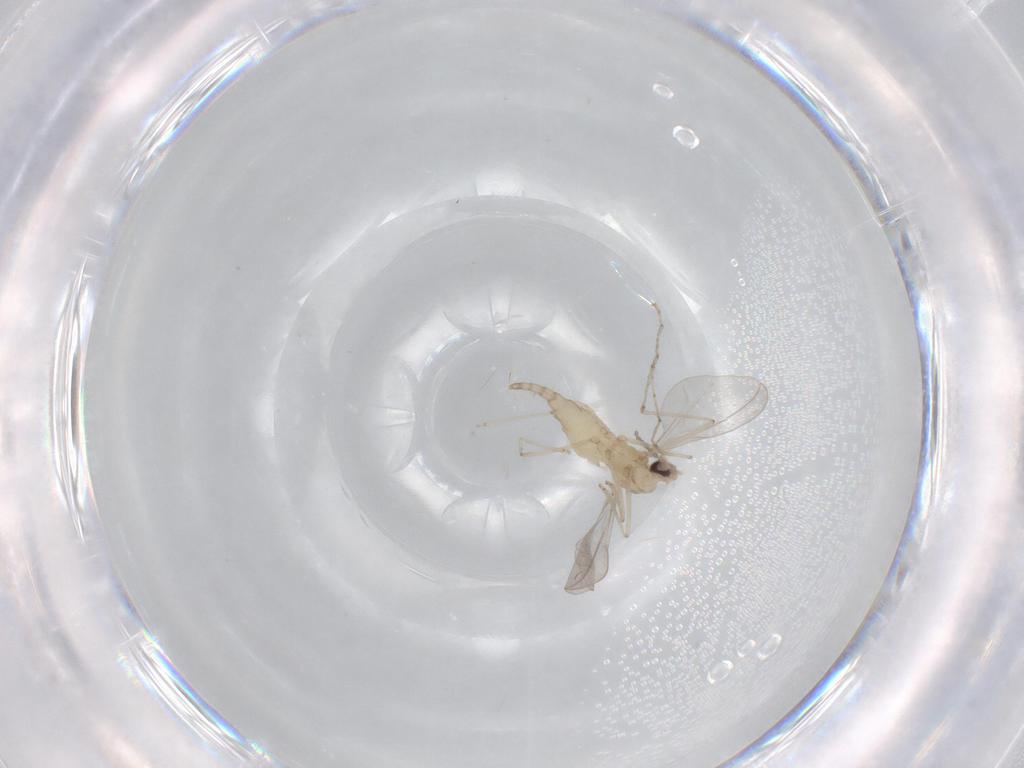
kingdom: Animalia
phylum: Arthropoda
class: Insecta
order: Diptera
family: Cecidomyiidae
